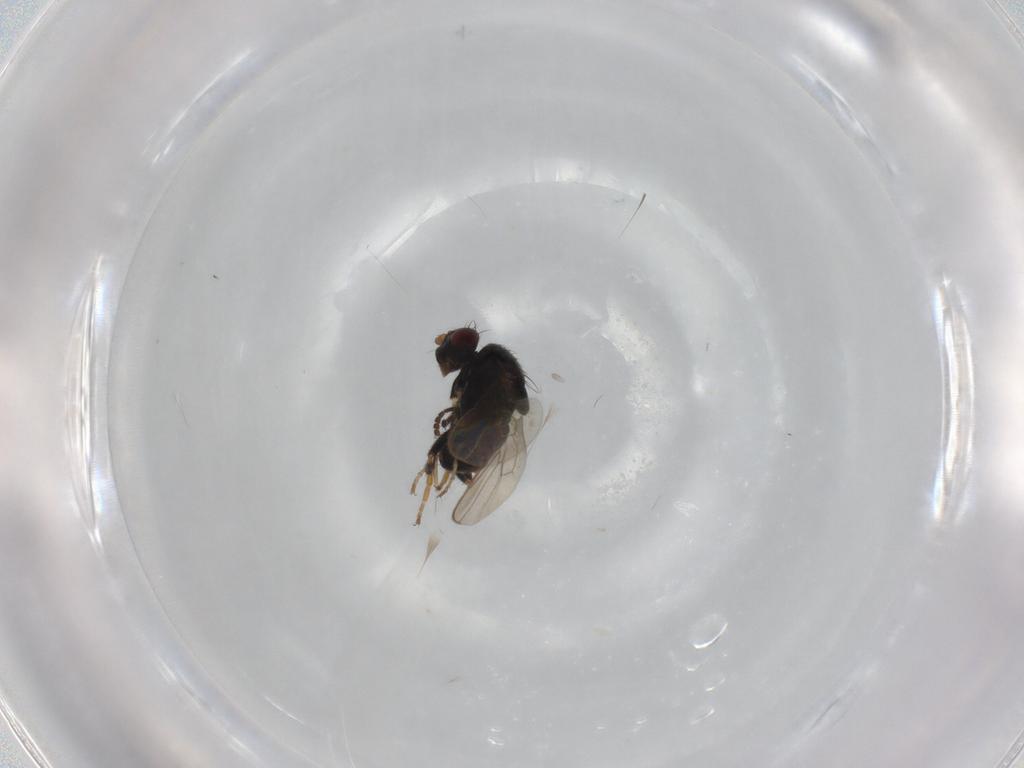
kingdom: Animalia
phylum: Arthropoda
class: Insecta
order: Diptera
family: Sphaeroceridae
